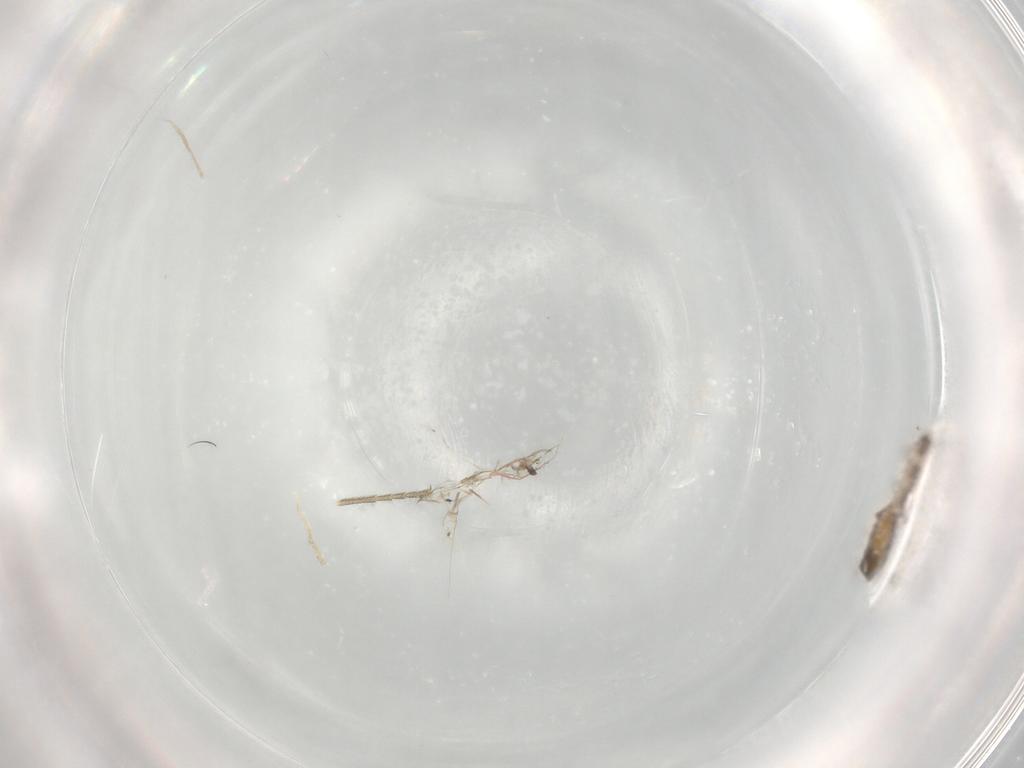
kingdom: Animalia
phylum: Arthropoda
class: Insecta
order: Diptera
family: Chironomidae
